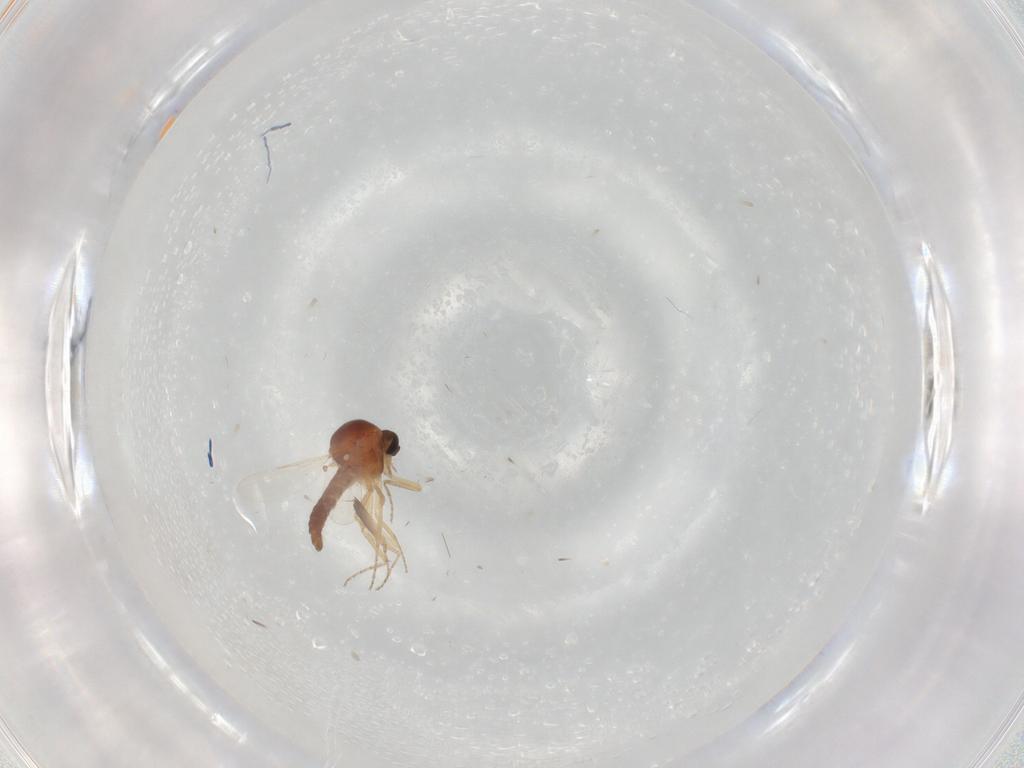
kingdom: Animalia
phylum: Arthropoda
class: Insecta
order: Diptera
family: Ceratopogonidae
